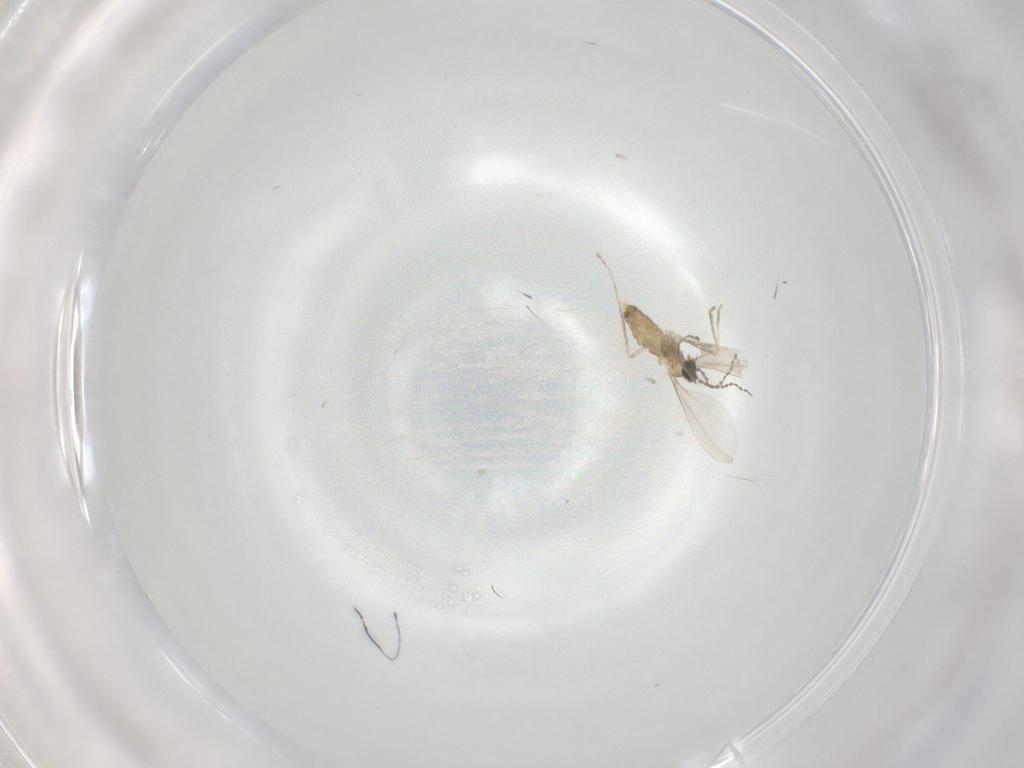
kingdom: Animalia
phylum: Arthropoda
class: Insecta
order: Diptera
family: Cecidomyiidae
